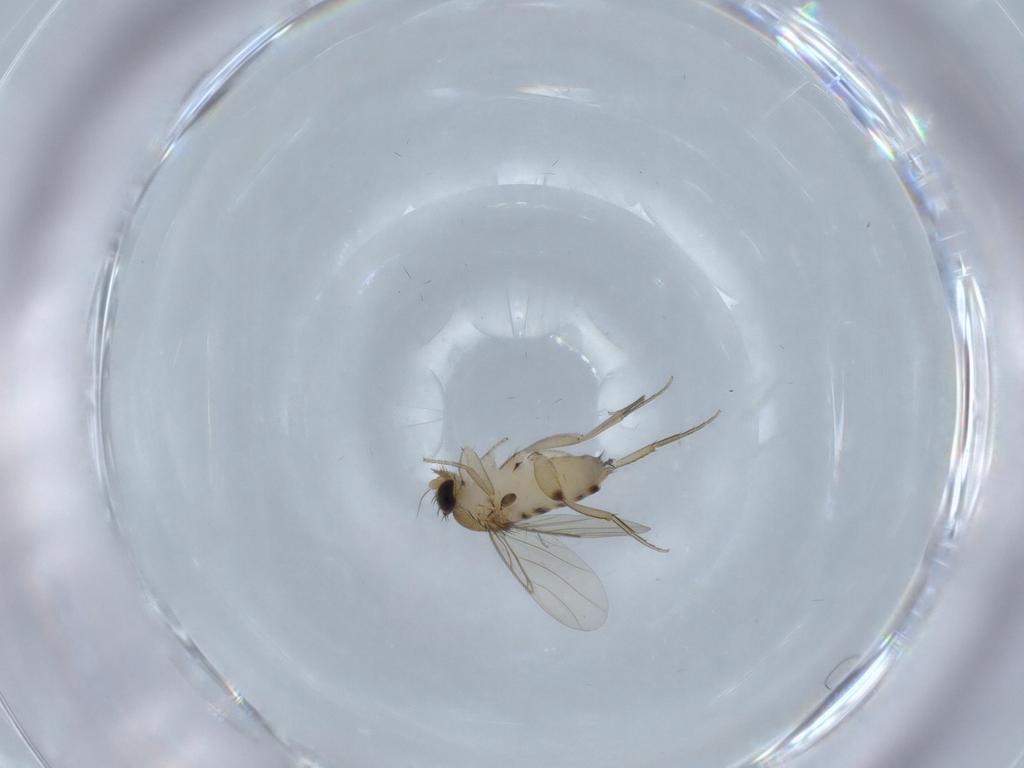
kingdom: Animalia
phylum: Arthropoda
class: Insecta
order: Diptera
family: Phoridae
